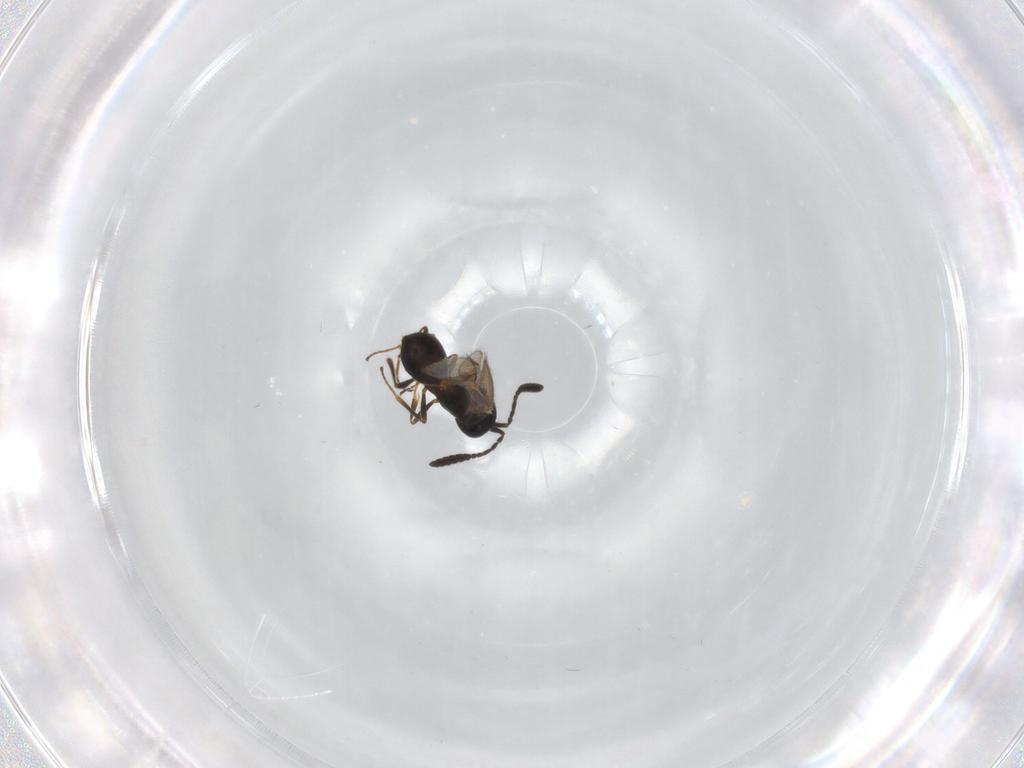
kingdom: Animalia
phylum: Arthropoda
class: Insecta
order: Hymenoptera
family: Scelionidae
